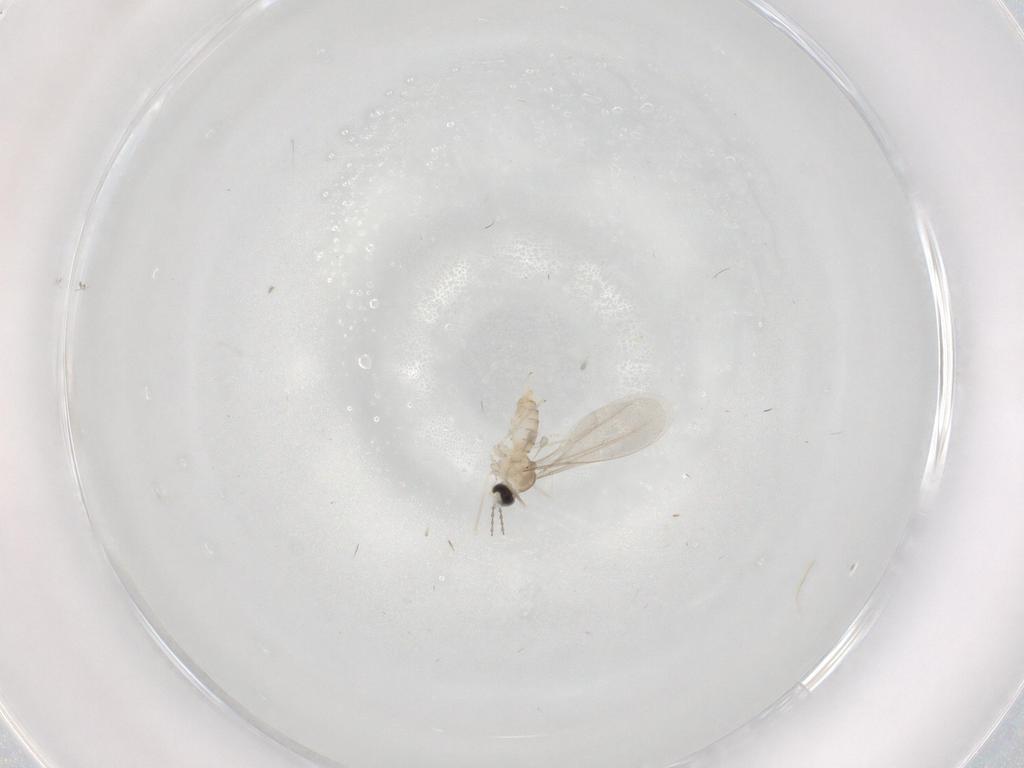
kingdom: Animalia
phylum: Arthropoda
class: Insecta
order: Diptera
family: Cecidomyiidae
